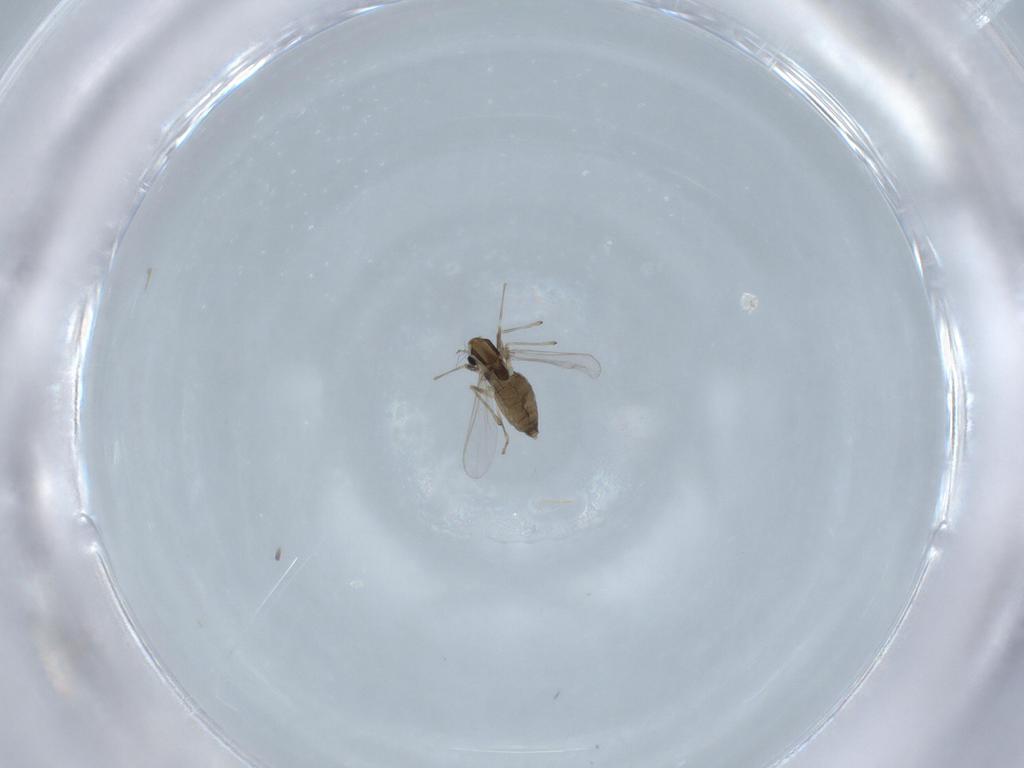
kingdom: Animalia
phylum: Arthropoda
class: Insecta
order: Diptera
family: Chironomidae
